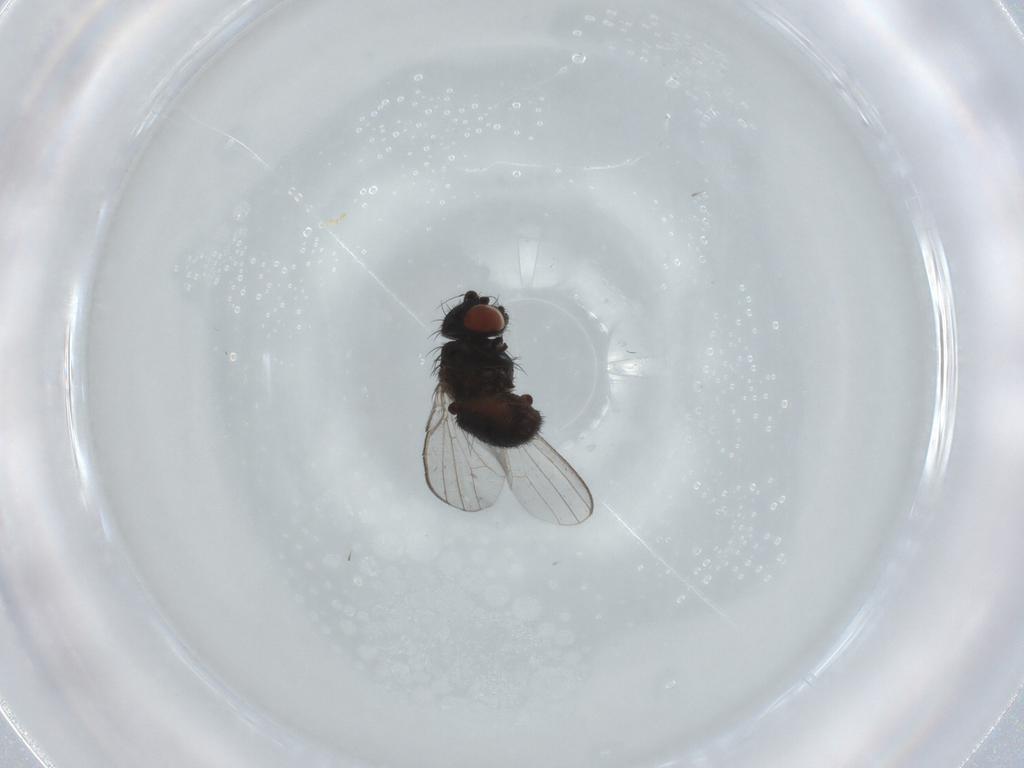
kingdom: Animalia
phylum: Arthropoda
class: Insecta
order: Diptera
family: Milichiidae
